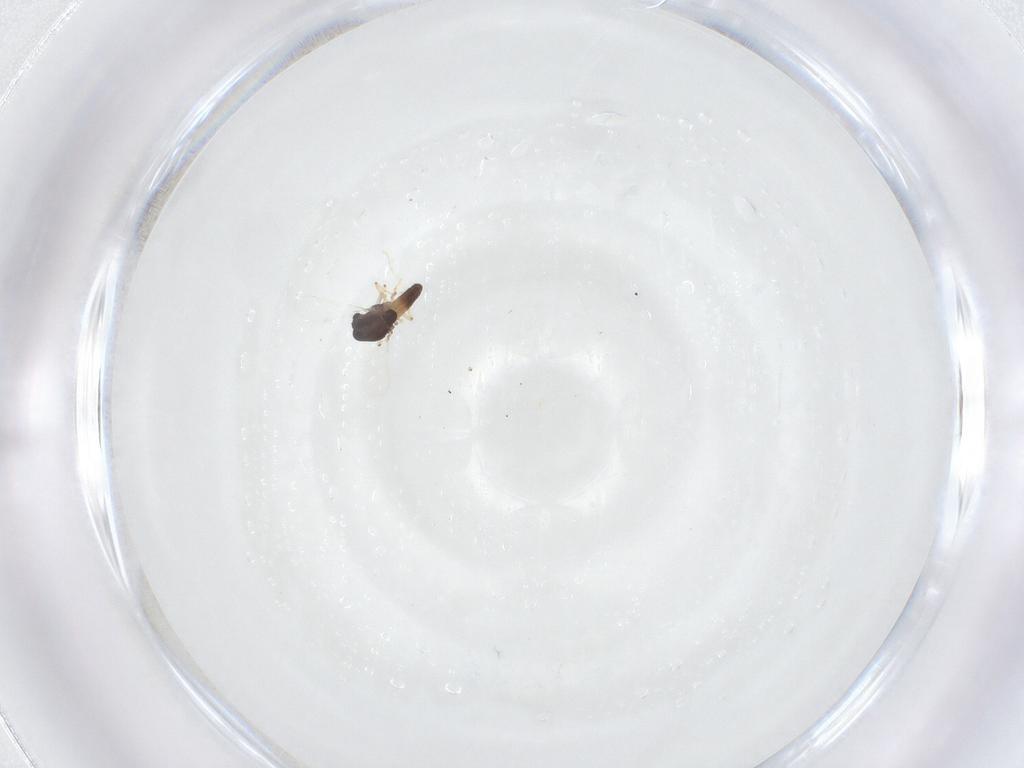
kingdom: Animalia
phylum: Arthropoda
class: Insecta
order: Diptera
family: Chironomidae
